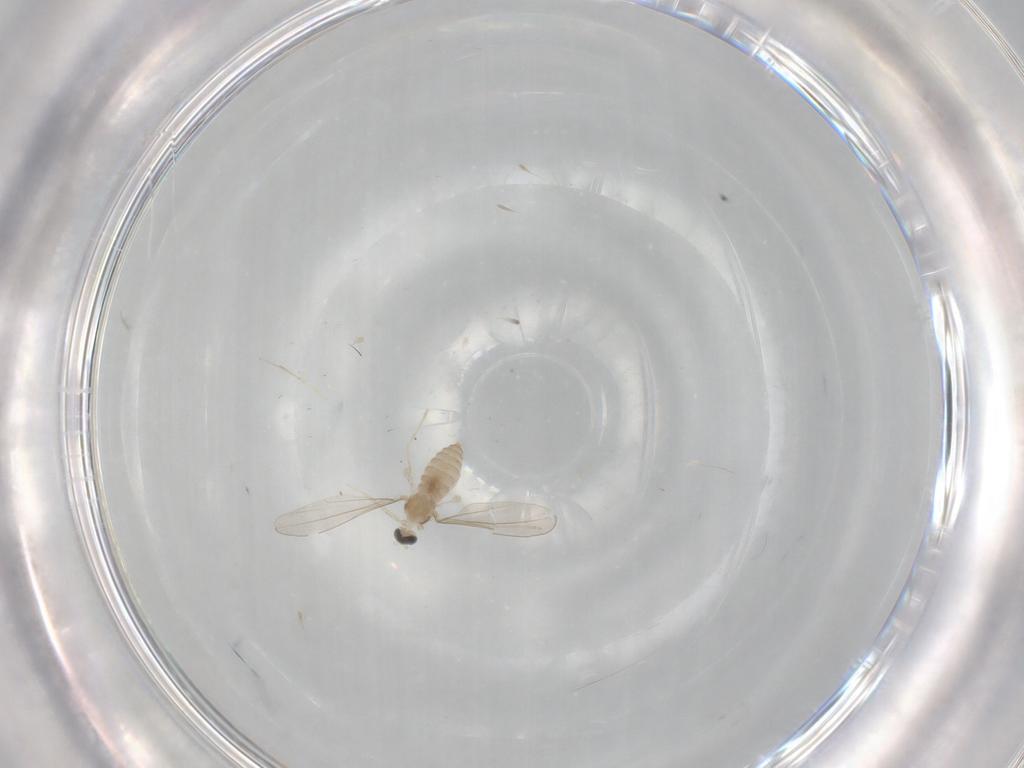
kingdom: Animalia
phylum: Arthropoda
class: Insecta
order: Diptera
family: Cecidomyiidae
